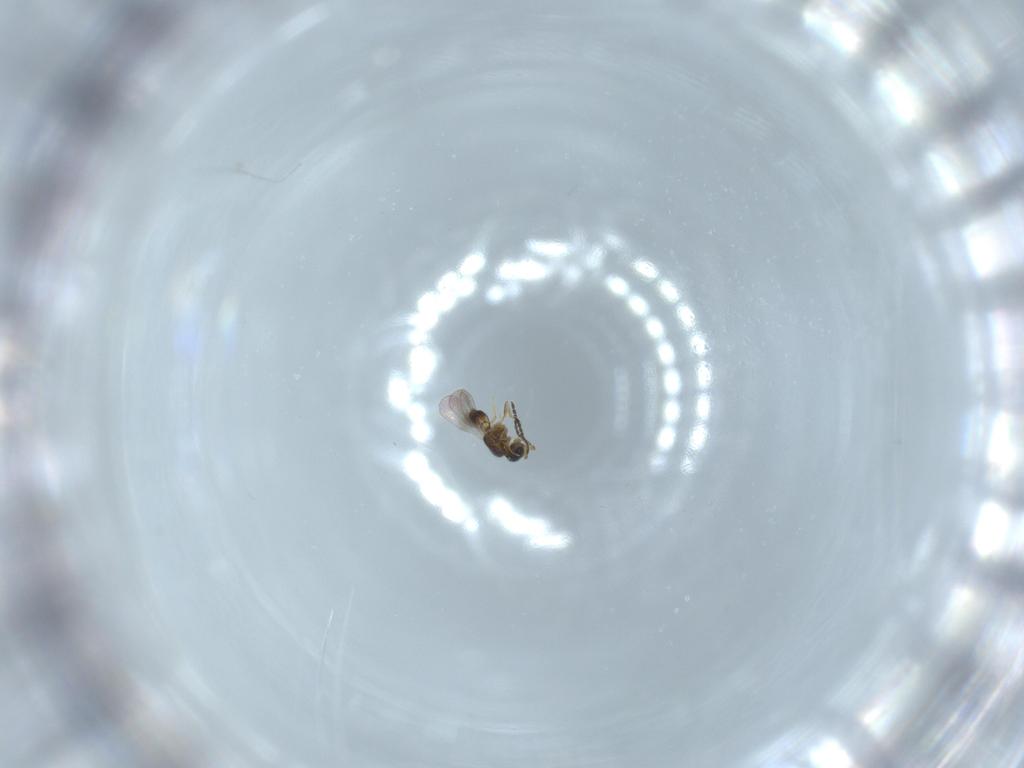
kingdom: Animalia
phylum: Arthropoda
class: Insecta
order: Hymenoptera
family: Ceraphronidae
